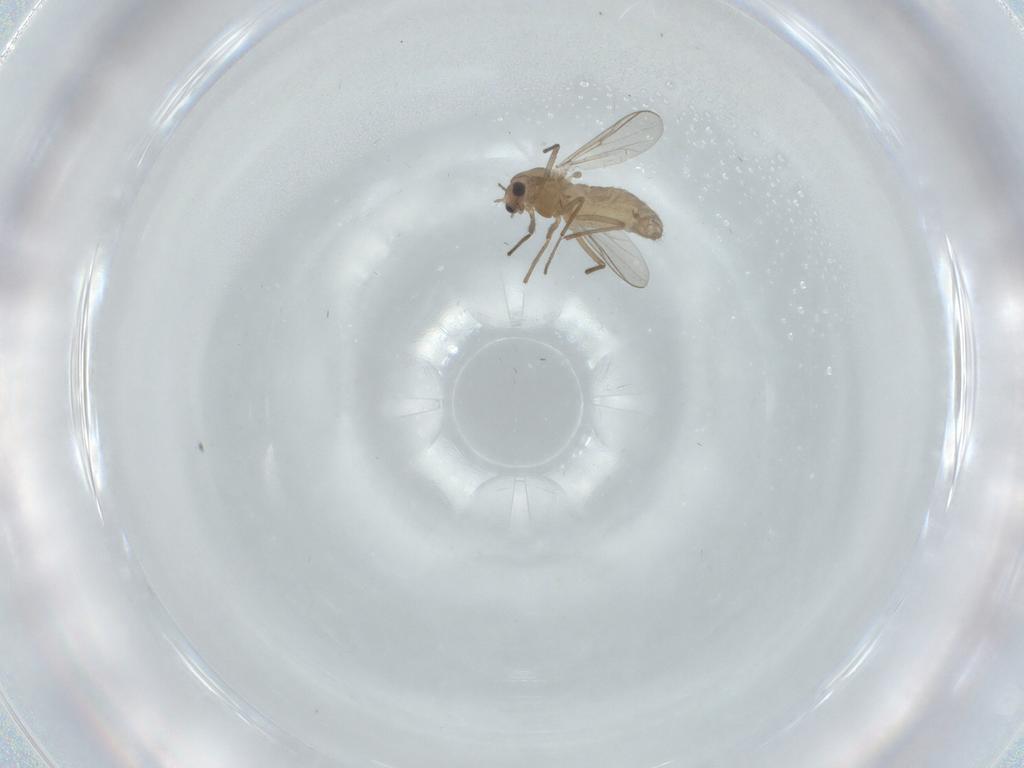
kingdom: Animalia
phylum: Arthropoda
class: Insecta
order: Diptera
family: Chironomidae
